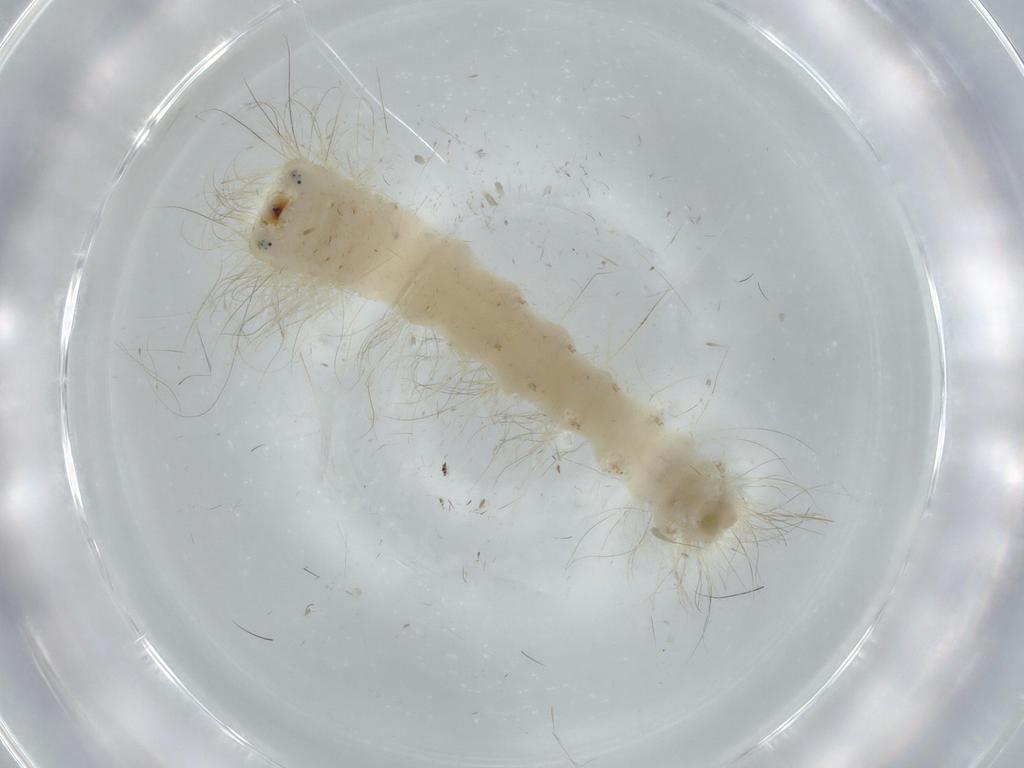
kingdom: Animalia
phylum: Arthropoda
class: Insecta
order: Lepidoptera
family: Apatelodidae
